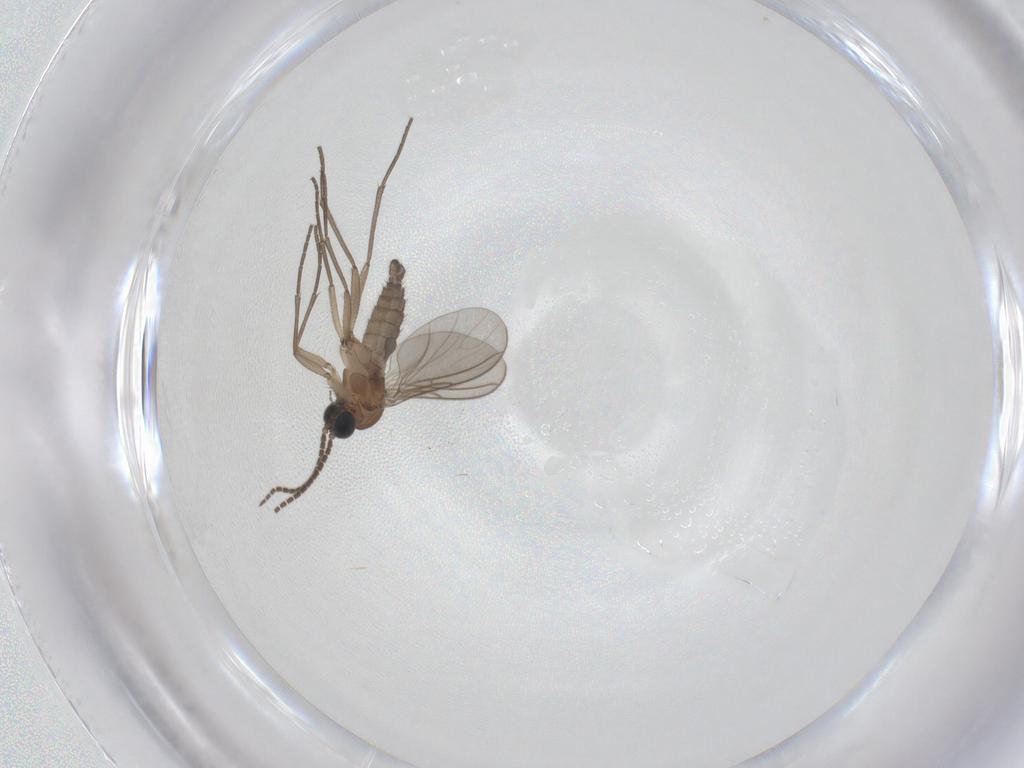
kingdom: Animalia
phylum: Arthropoda
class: Insecta
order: Diptera
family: Sciaridae
